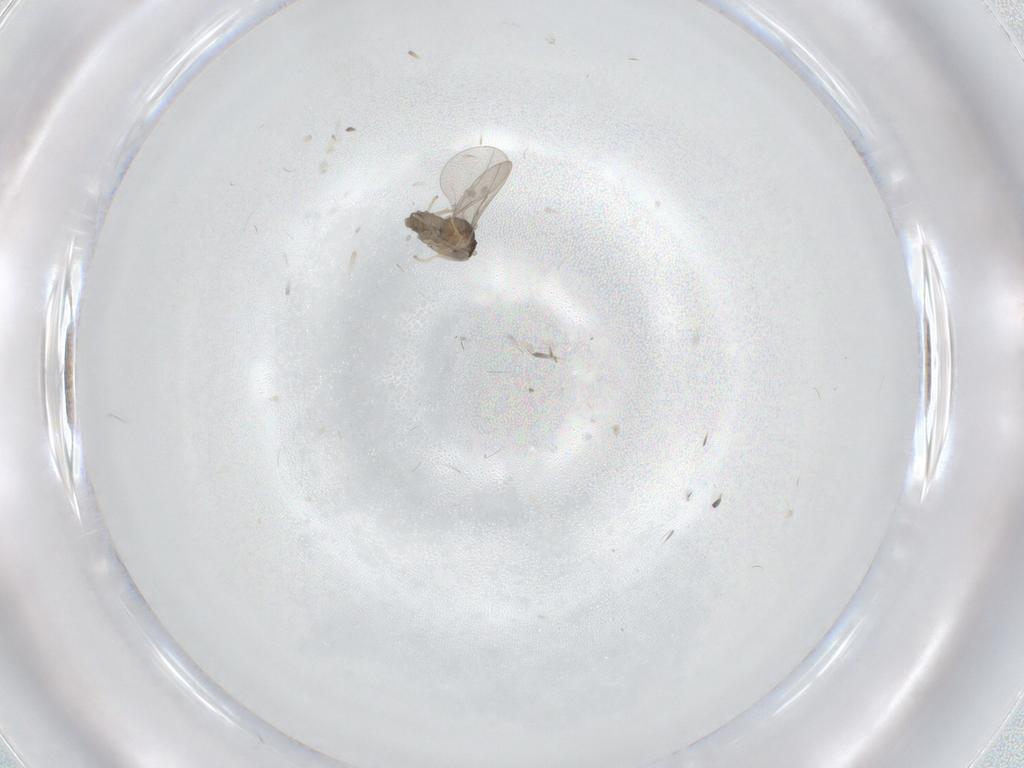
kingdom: Animalia
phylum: Arthropoda
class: Insecta
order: Diptera
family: Cecidomyiidae
